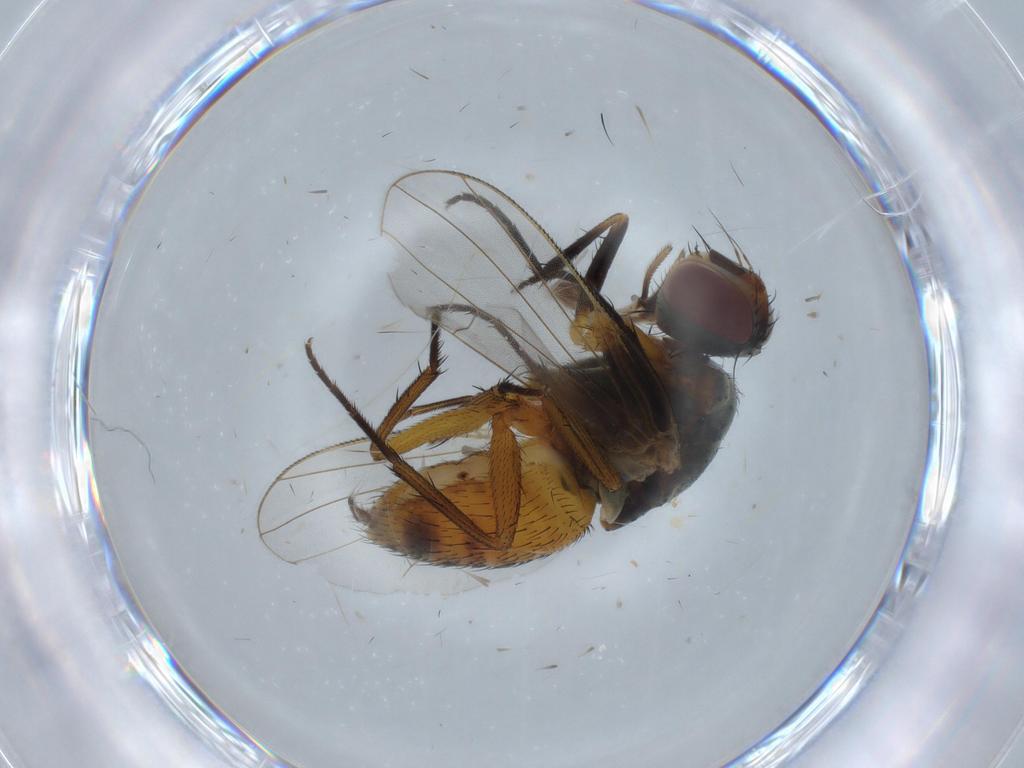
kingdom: Animalia
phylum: Arthropoda
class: Insecta
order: Diptera
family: Muscidae
